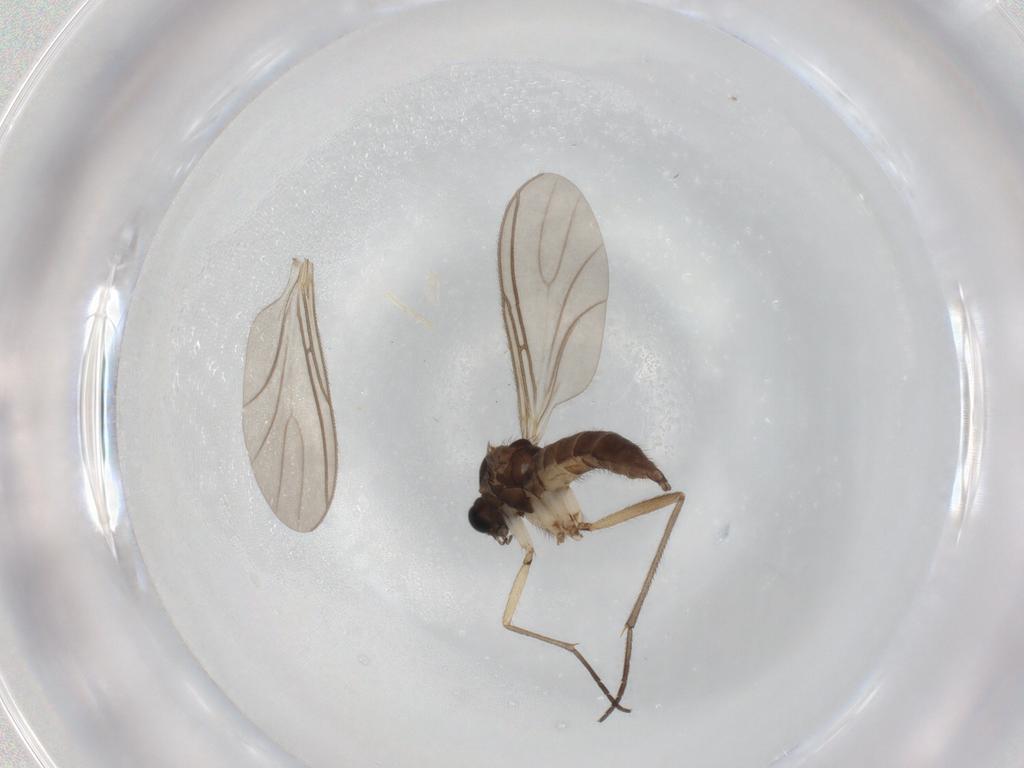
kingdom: Animalia
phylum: Arthropoda
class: Insecta
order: Diptera
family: Sciaridae
